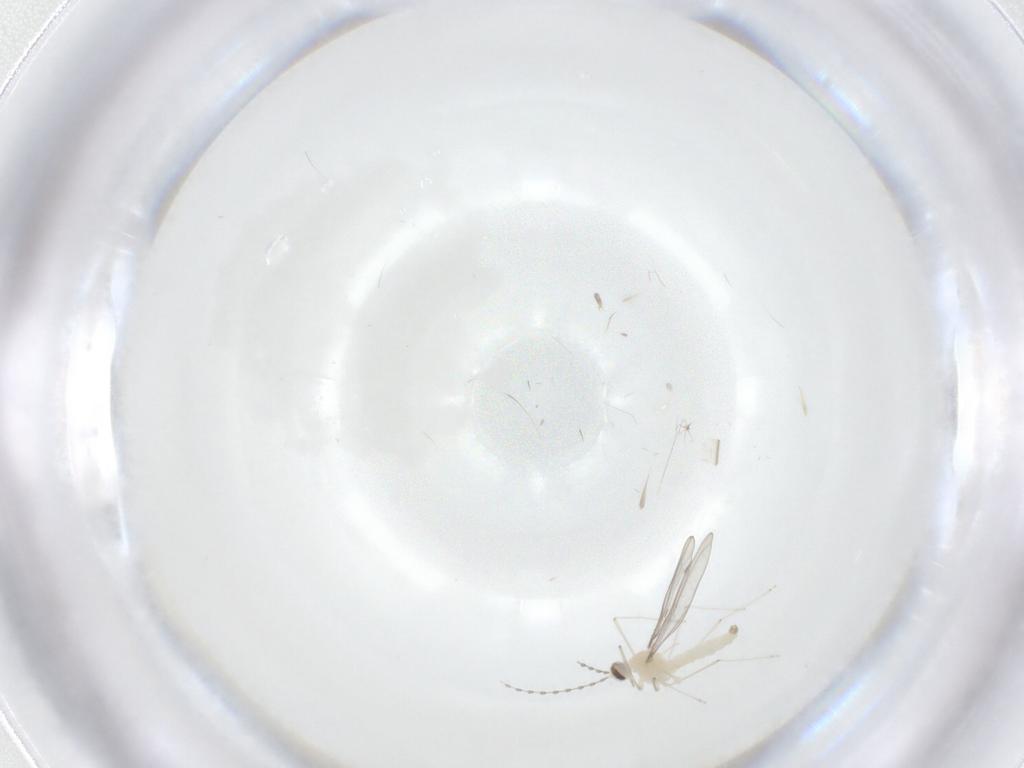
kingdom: Animalia
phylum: Arthropoda
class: Insecta
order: Diptera
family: Cecidomyiidae
